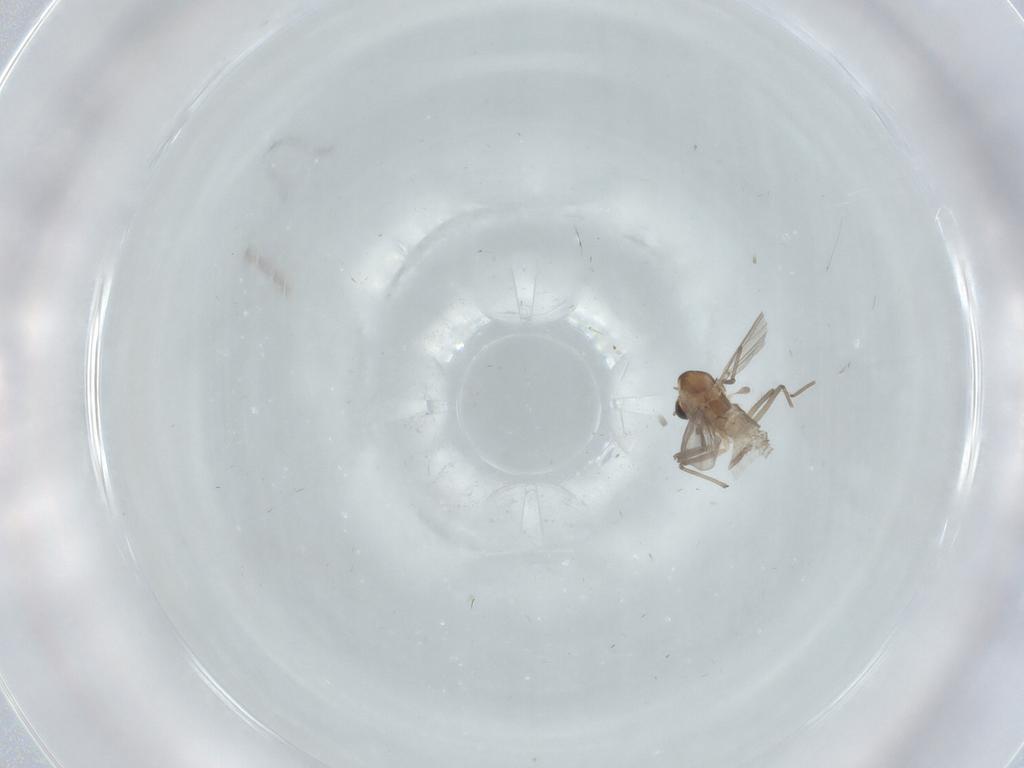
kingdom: Animalia
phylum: Arthropoda
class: Insecta
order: Diptera
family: Chironomidae
